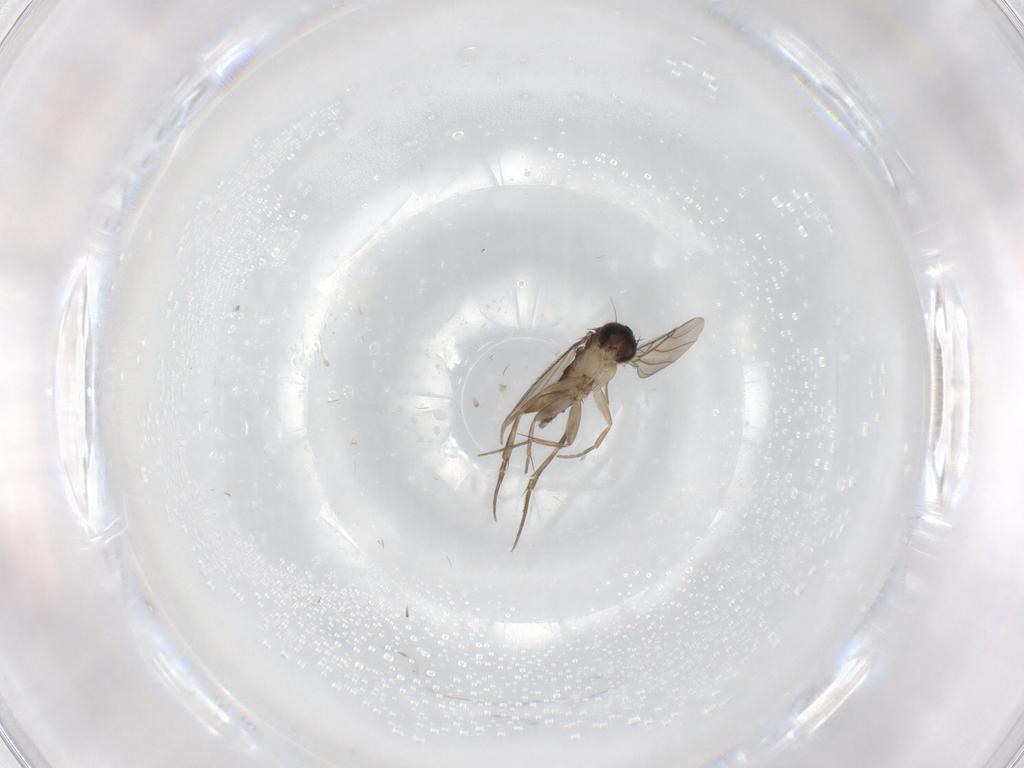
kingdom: Animalia
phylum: Arthropoda
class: Insecta
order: Diptera
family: Phoridae
